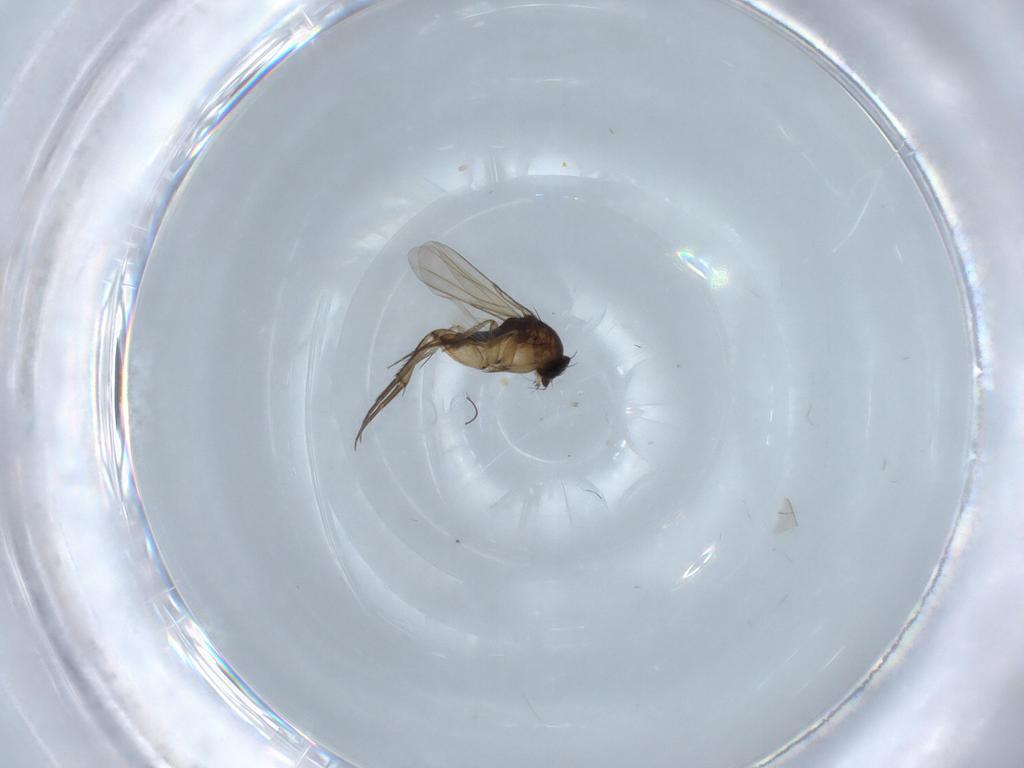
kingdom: Animalia
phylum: Arthropoda
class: Insecta
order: Diptera
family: Phoridae
